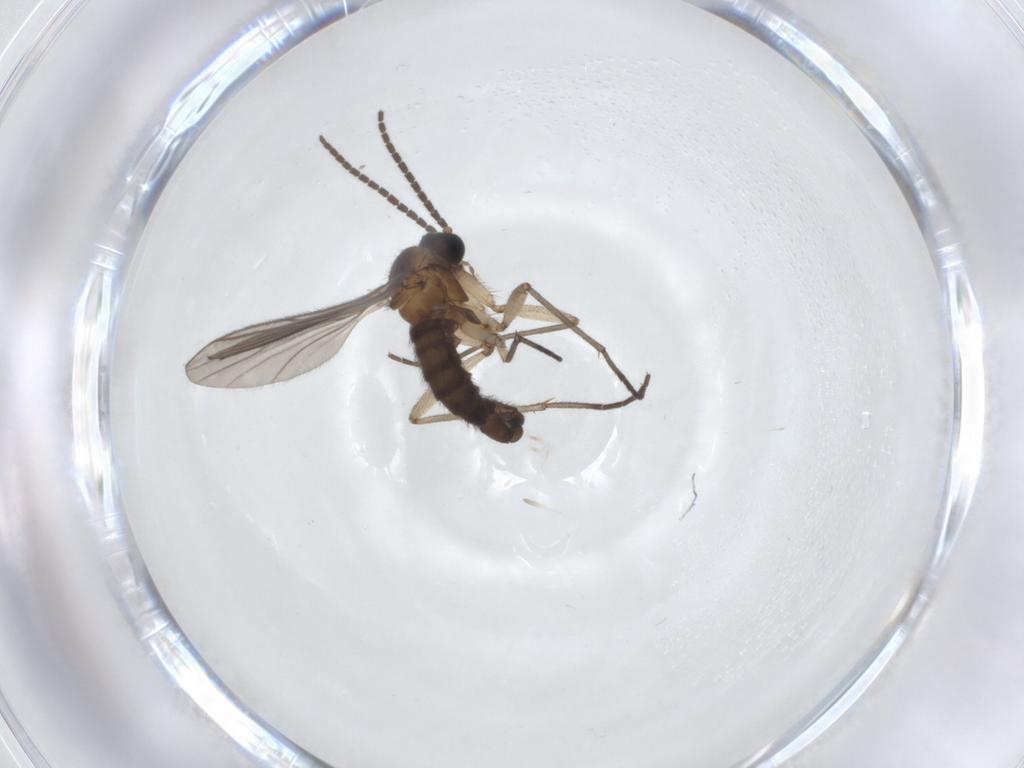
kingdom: Animalia
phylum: Arthropoda
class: Insecta
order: Diptera
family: Sciaridae
